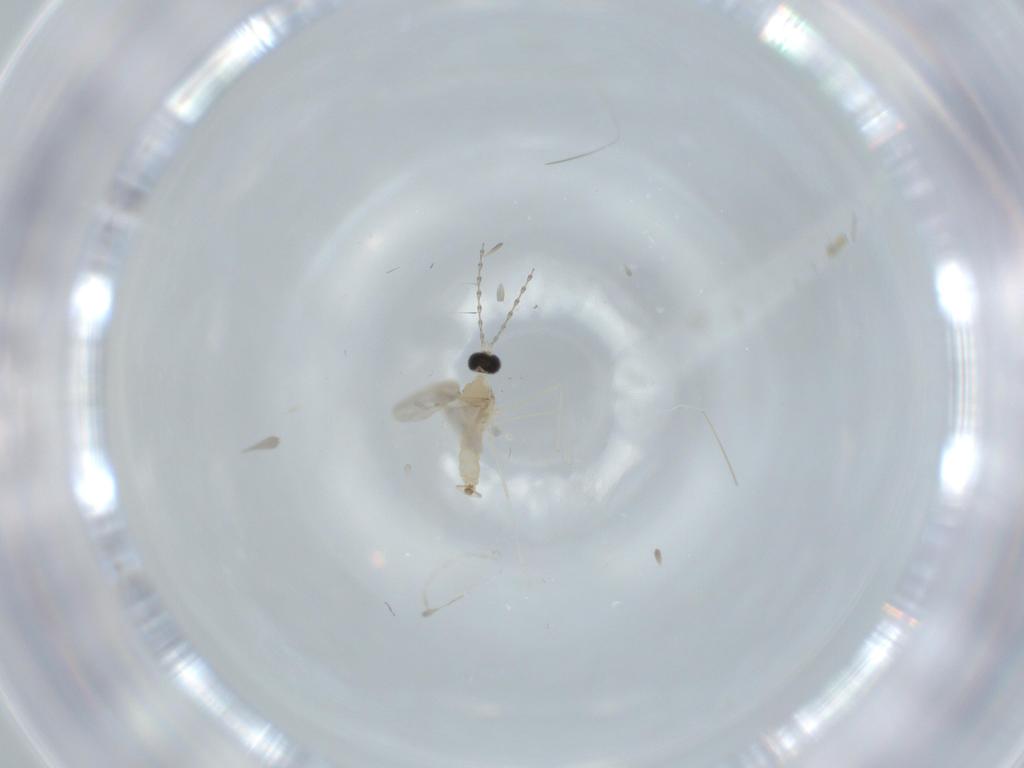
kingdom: Animalia
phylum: Arthropoda
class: Insecta
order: Diptera
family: Cecidomyiidae
